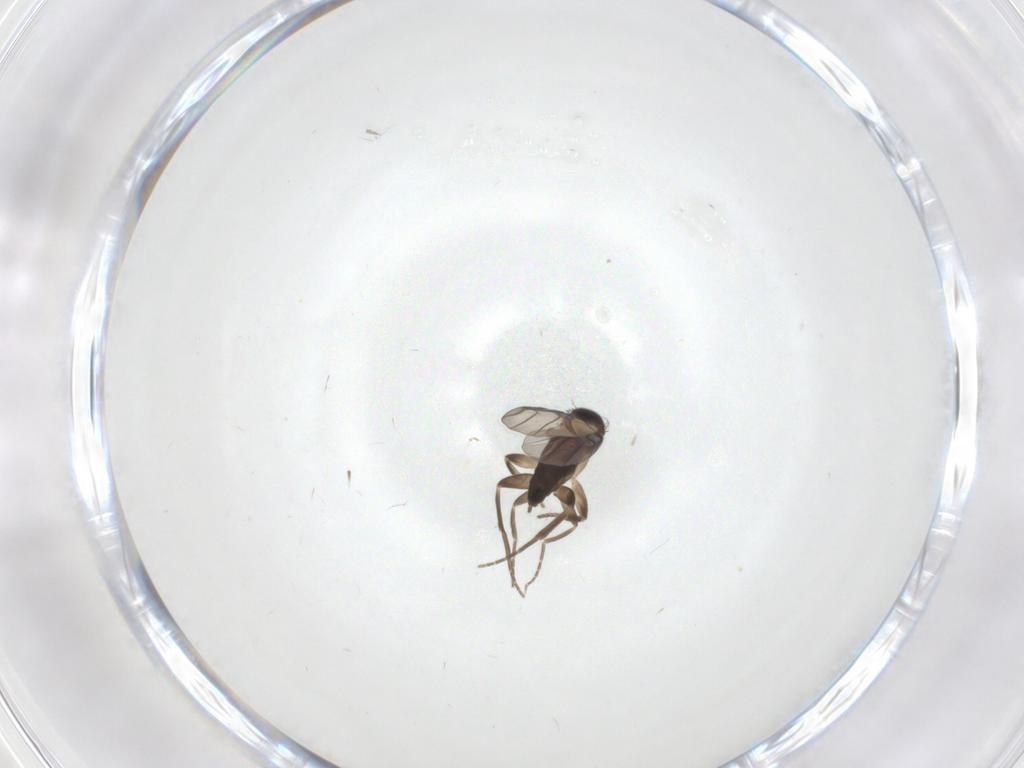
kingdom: Animalia
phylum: Arthropoda
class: Insecta
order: Diptera
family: Phoridae
